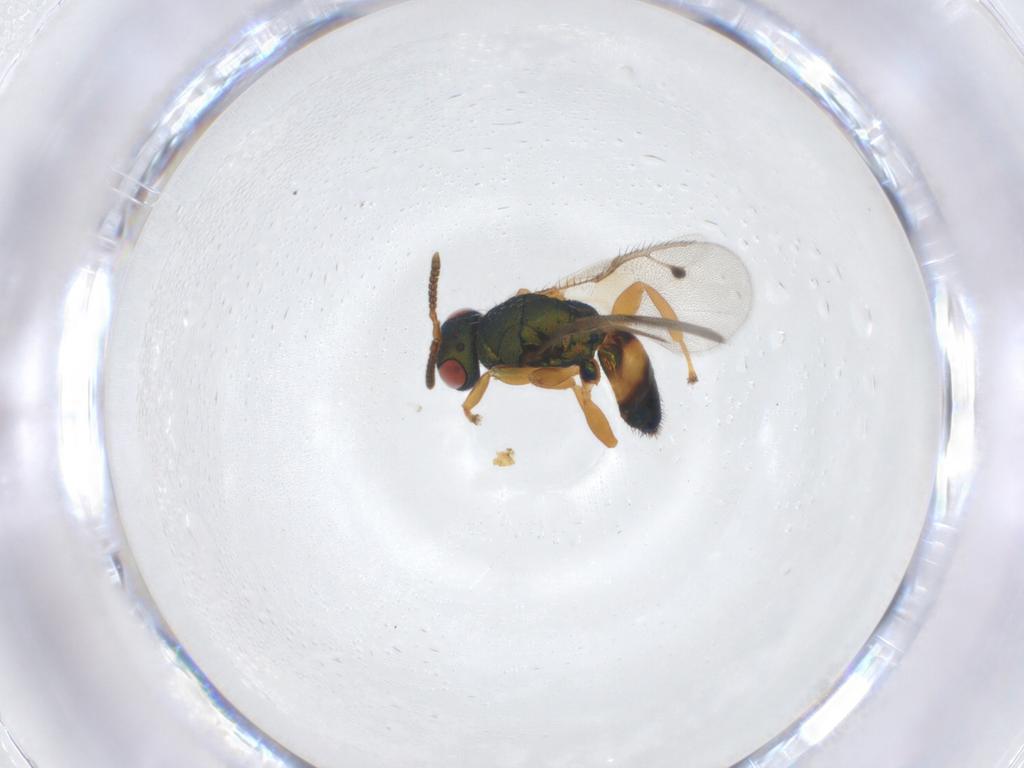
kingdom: Animalia
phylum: Arthropoda
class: Insecta
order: Hymenoptera
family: Pteromalidae
